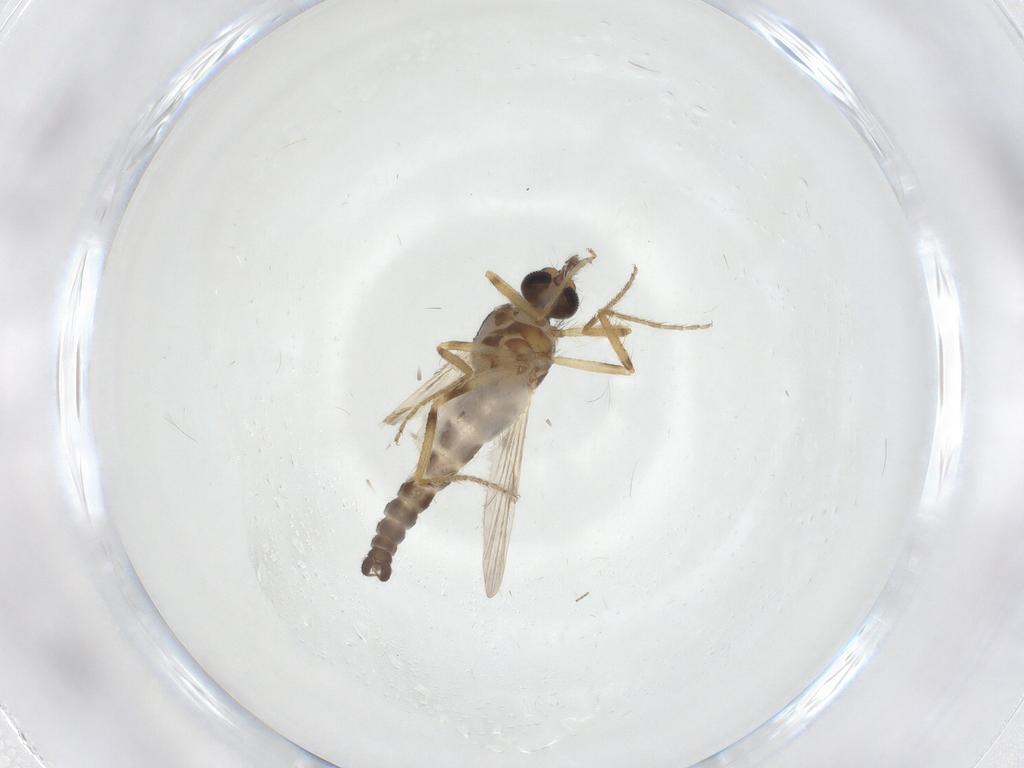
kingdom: Animalia
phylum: Arthropoda
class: Insecta
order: Diptera
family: Ceratopogonidae
